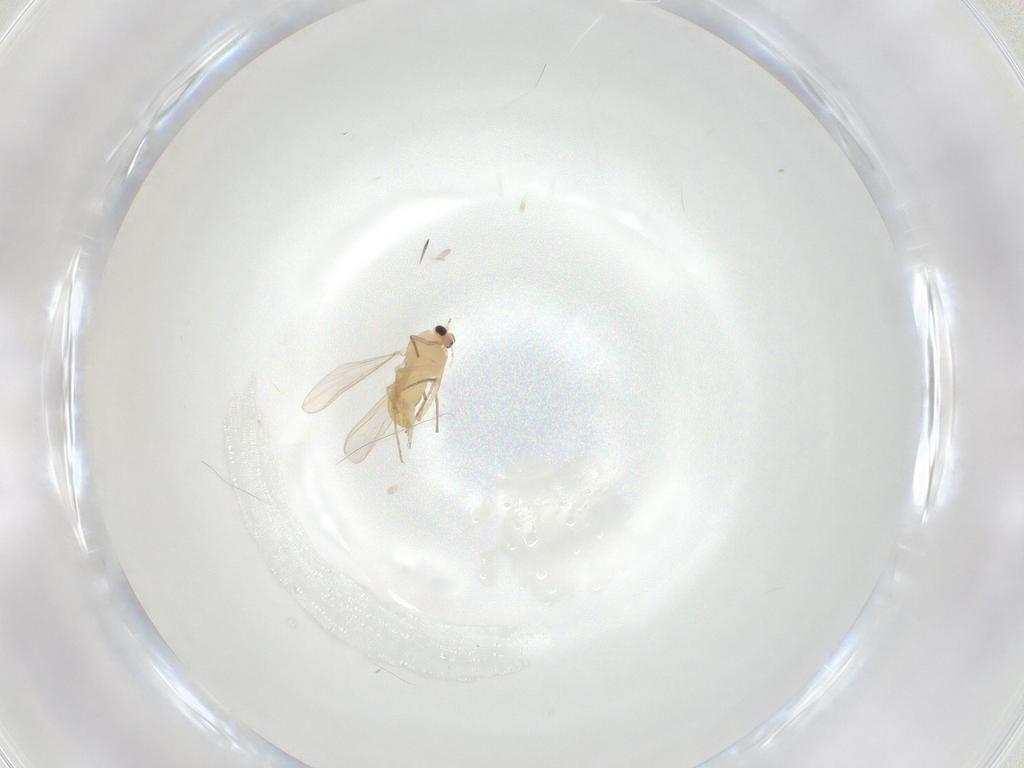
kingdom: Animalia
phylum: Arthropoda
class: Insecta
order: Diptera
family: Chironomidae
